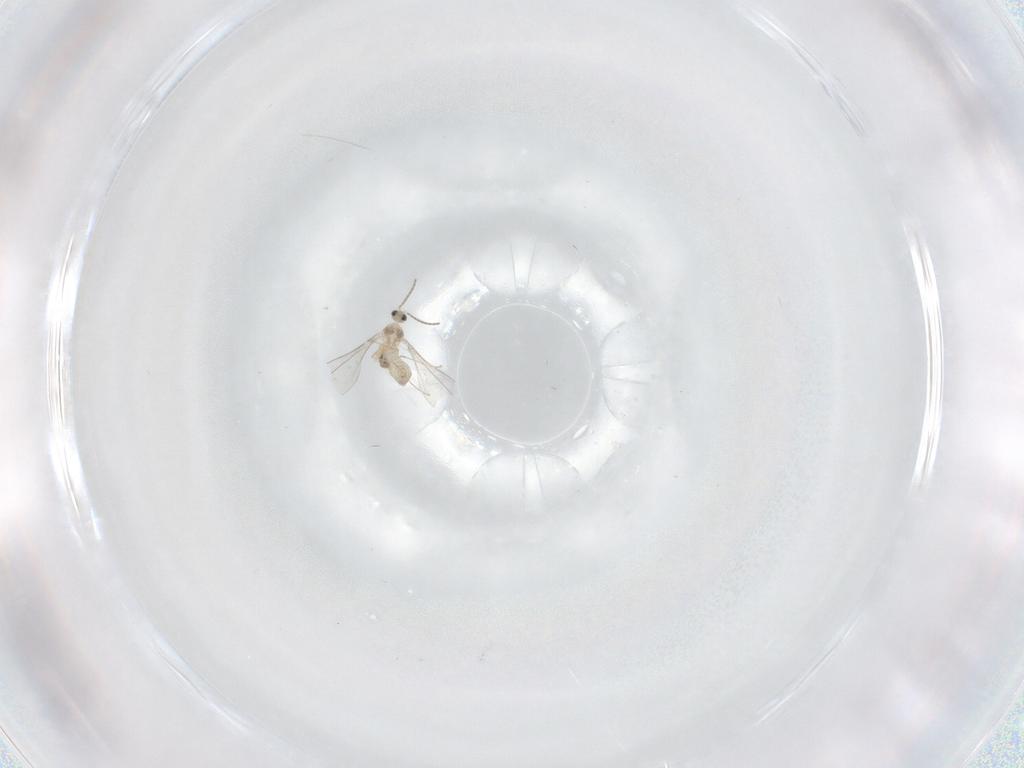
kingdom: Animalia
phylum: Arthropoda
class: Insecta
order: Diptera
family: Cecidomyiidae
